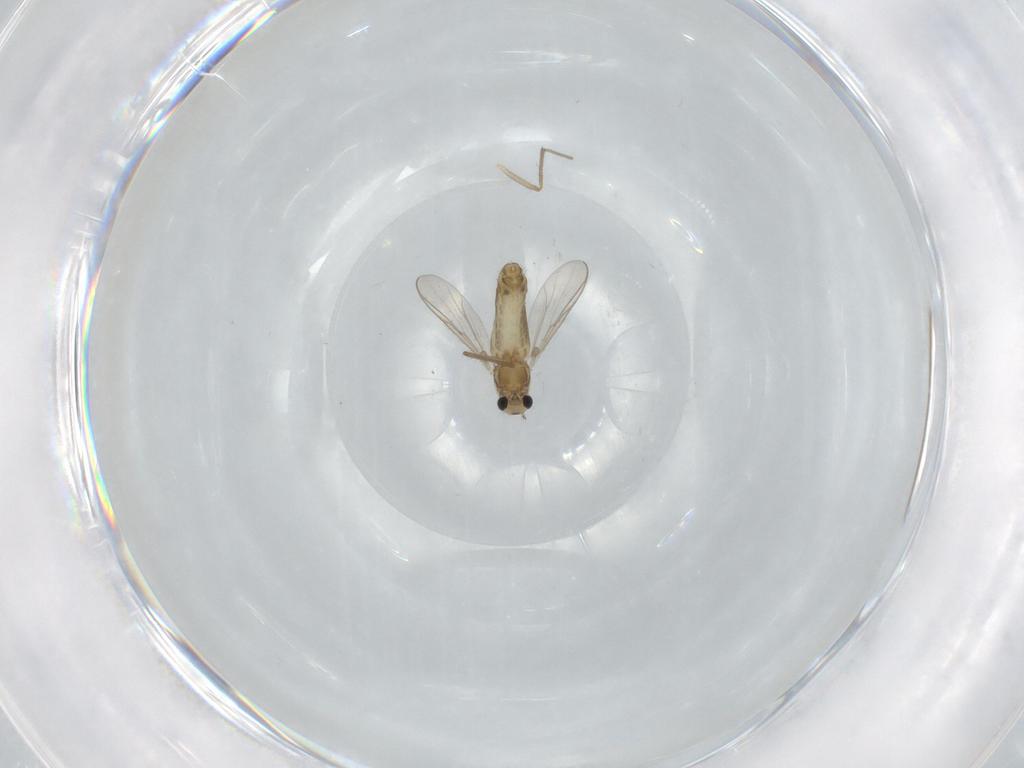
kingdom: Animalia
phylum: Arthropoda
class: Insecta
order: Diptera
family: Chironomidae
